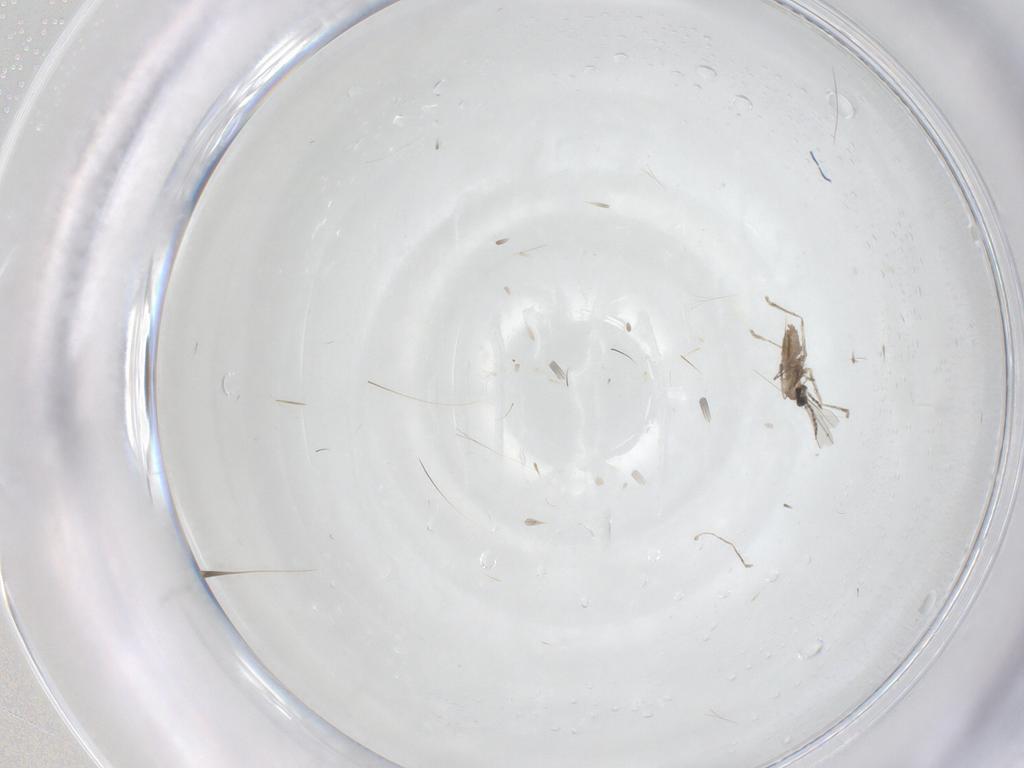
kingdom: Animalia
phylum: Arthropoda
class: Insecta
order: Diptera
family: Cecidomyiidae
